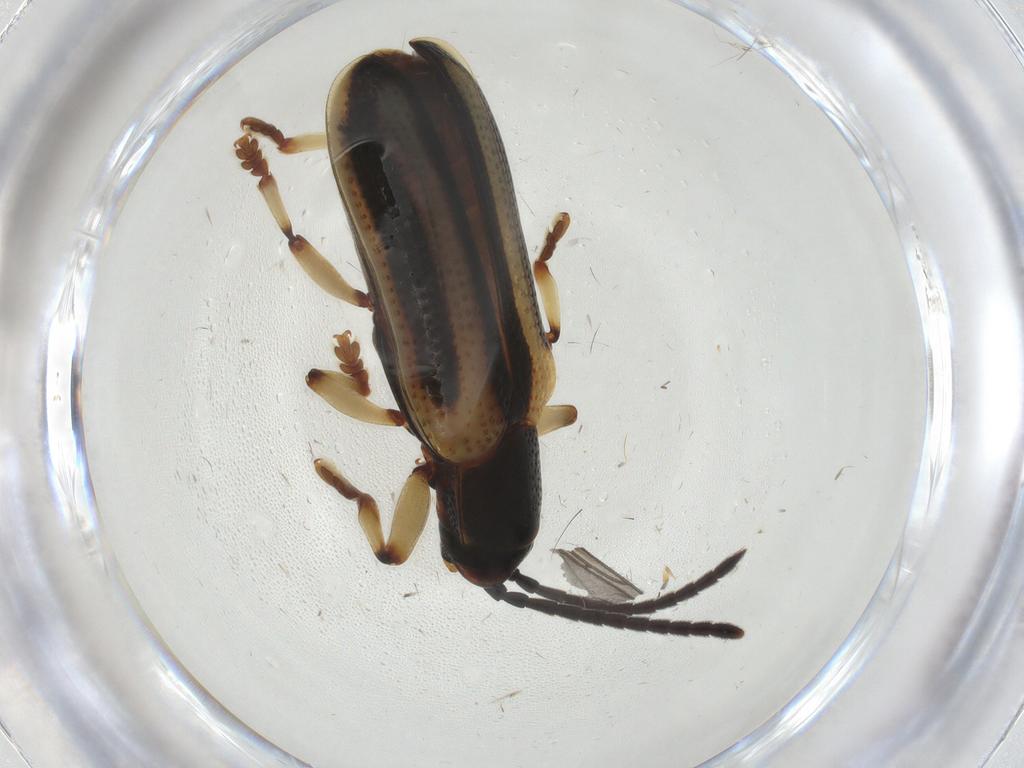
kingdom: Animalia
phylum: Arthropoda
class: Insecta
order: Coleoptera
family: Chrysomelidae
